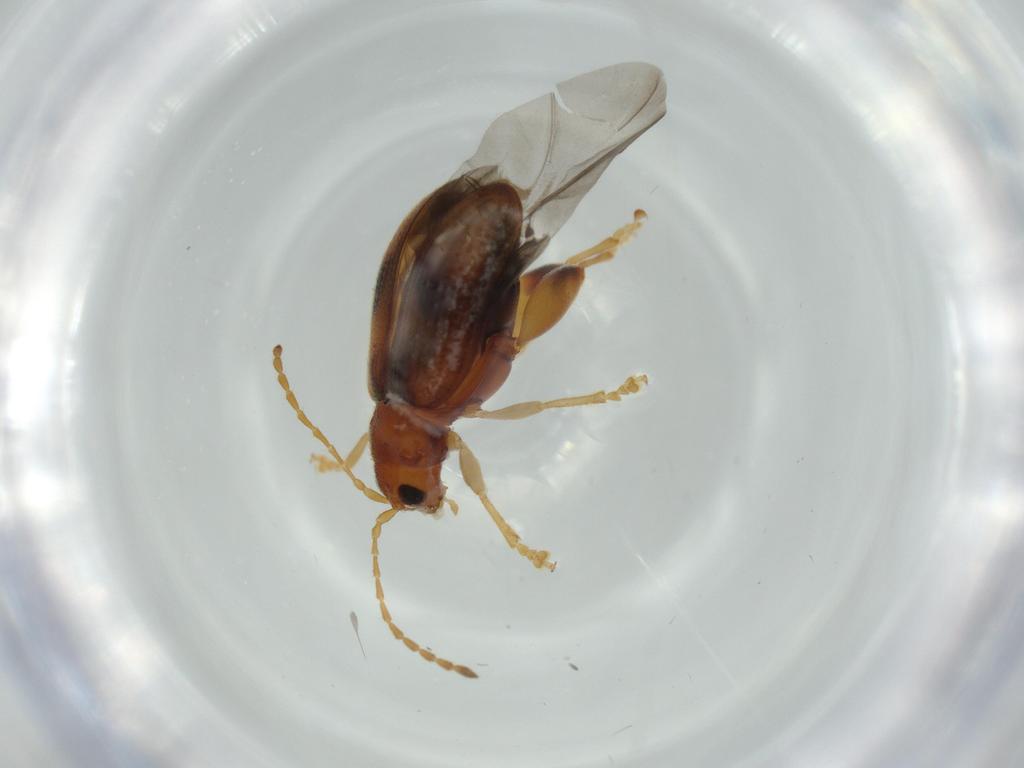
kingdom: Animalia
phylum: Arthropoda
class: Insecta
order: Coleoptera
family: Chrysomelidae
